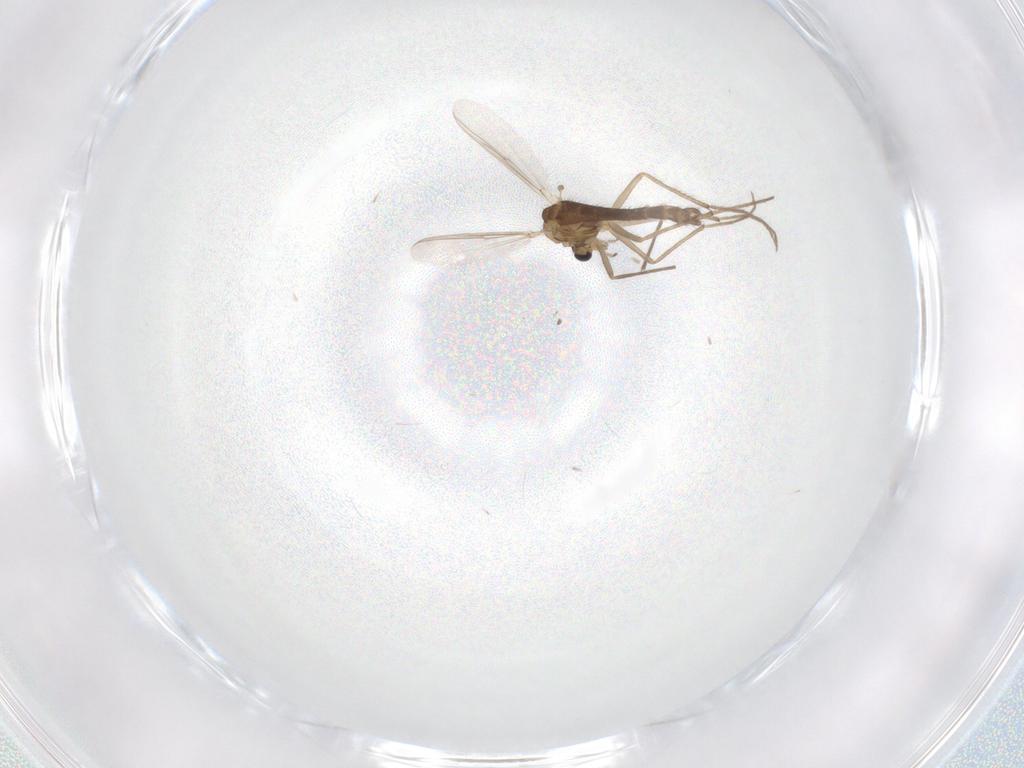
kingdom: Animalia
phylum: Arthropoda
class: Insecta
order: Diptera
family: Chironomidae
